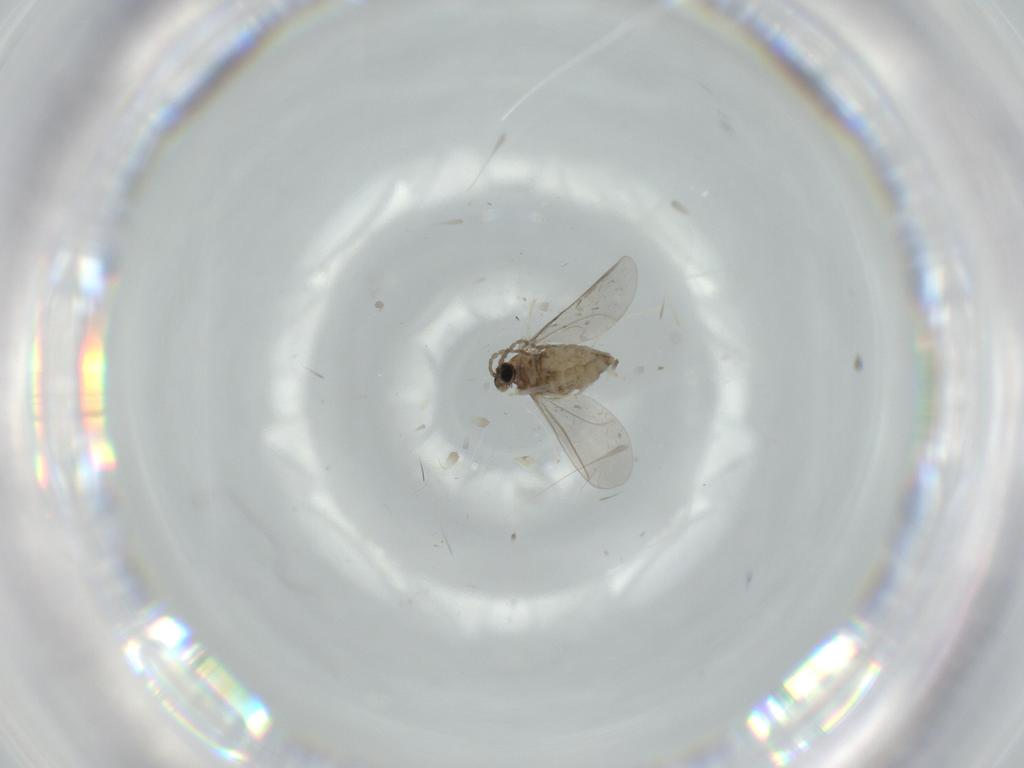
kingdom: Animalia
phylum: Arthropoda
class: Insecta
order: Diptera
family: Cecidomyiidae
